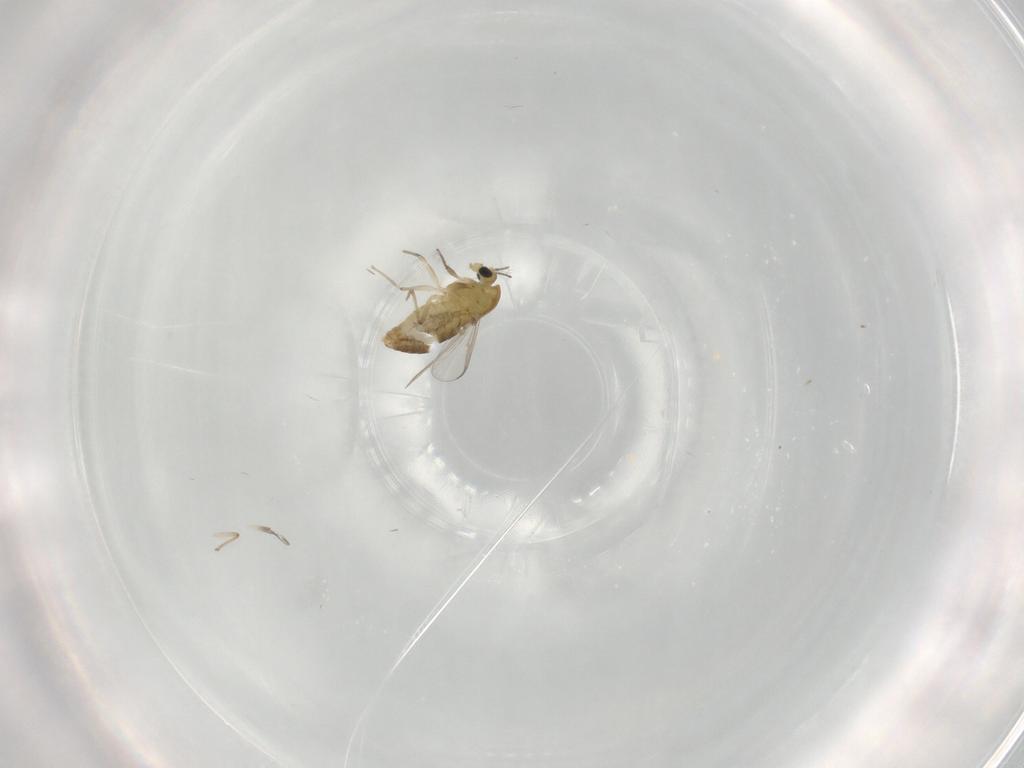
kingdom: Animalia
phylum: Arthropoda
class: Insecta
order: Diptera
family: Chironomidae
